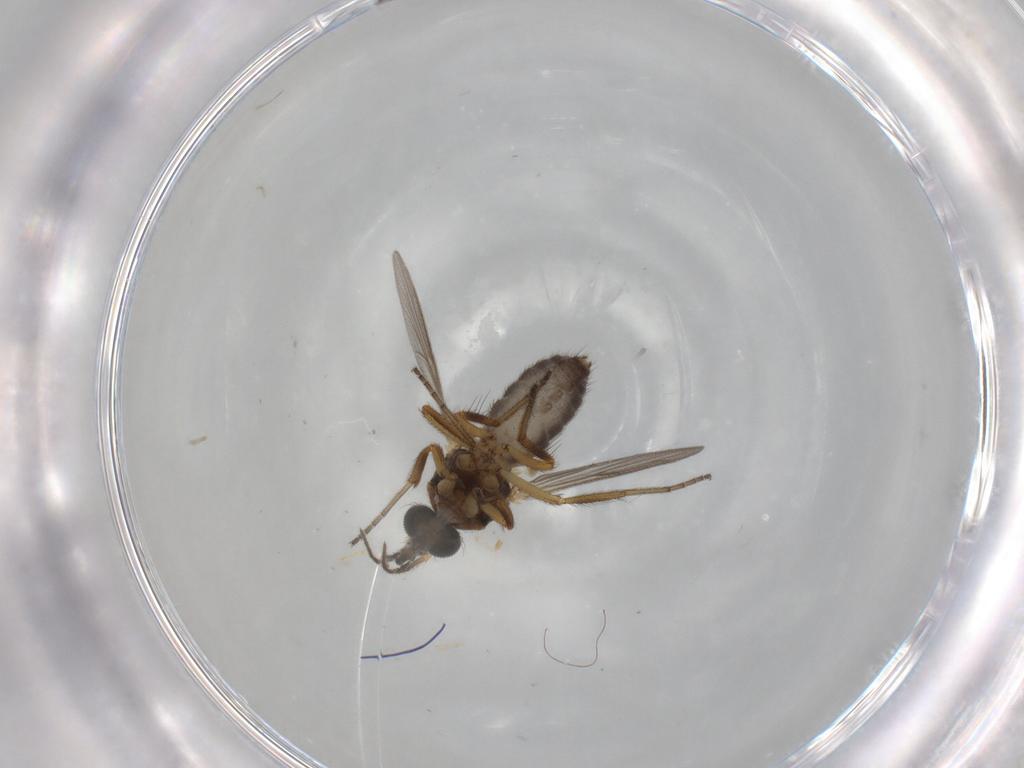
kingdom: Animalia
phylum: Arthropoda
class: Insecta
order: Diptera
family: Ceratopogonidae
